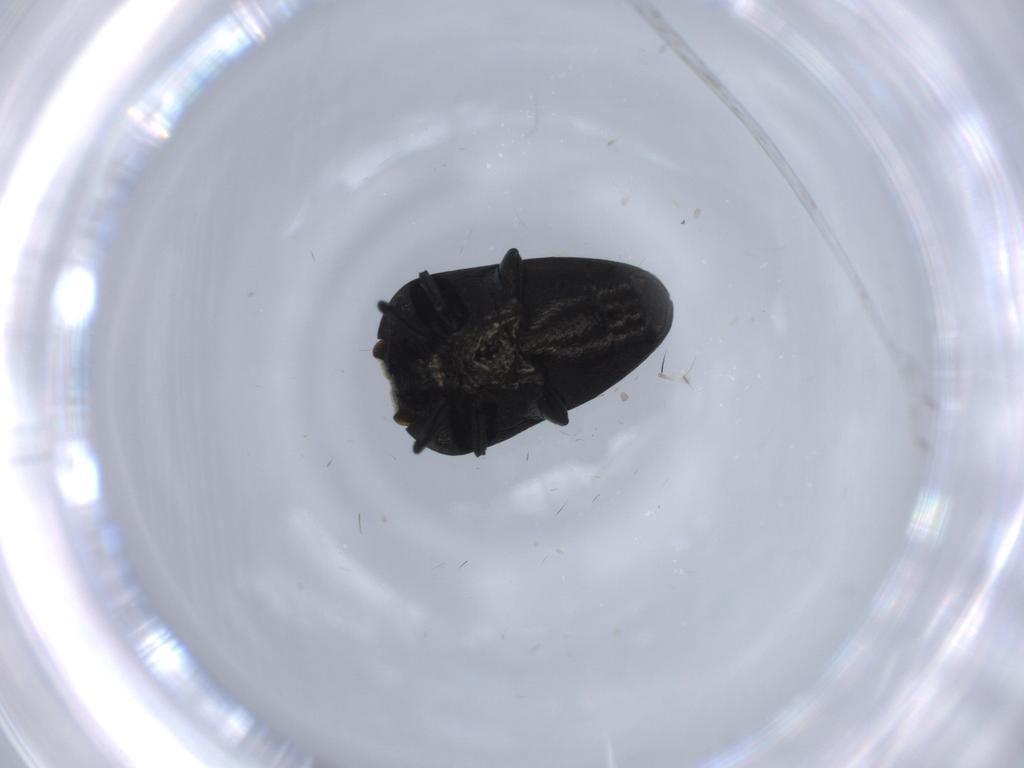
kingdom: Animalia
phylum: Arthropoda
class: Insecta
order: Coleoptera
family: Buprestidae
